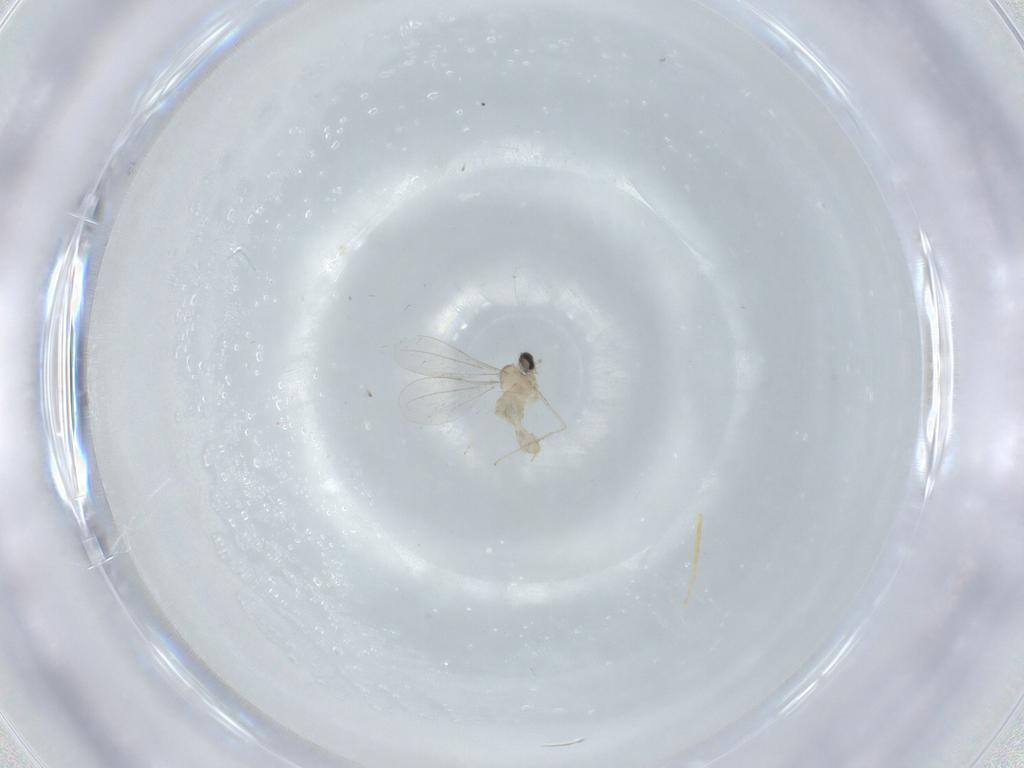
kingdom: Animalia
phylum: Arthropoda
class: Insecta
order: Diptera
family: Cecidomyiidae
